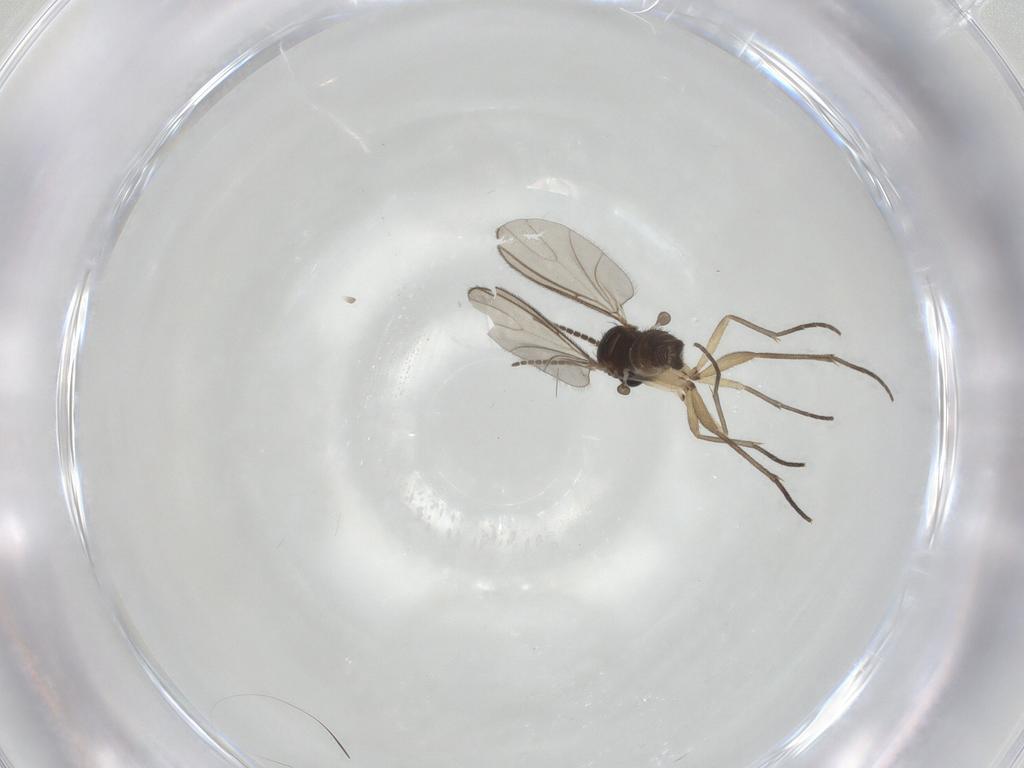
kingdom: Animalia
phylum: Arthropoda
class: Insecta
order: Diptera
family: Sciaridae
